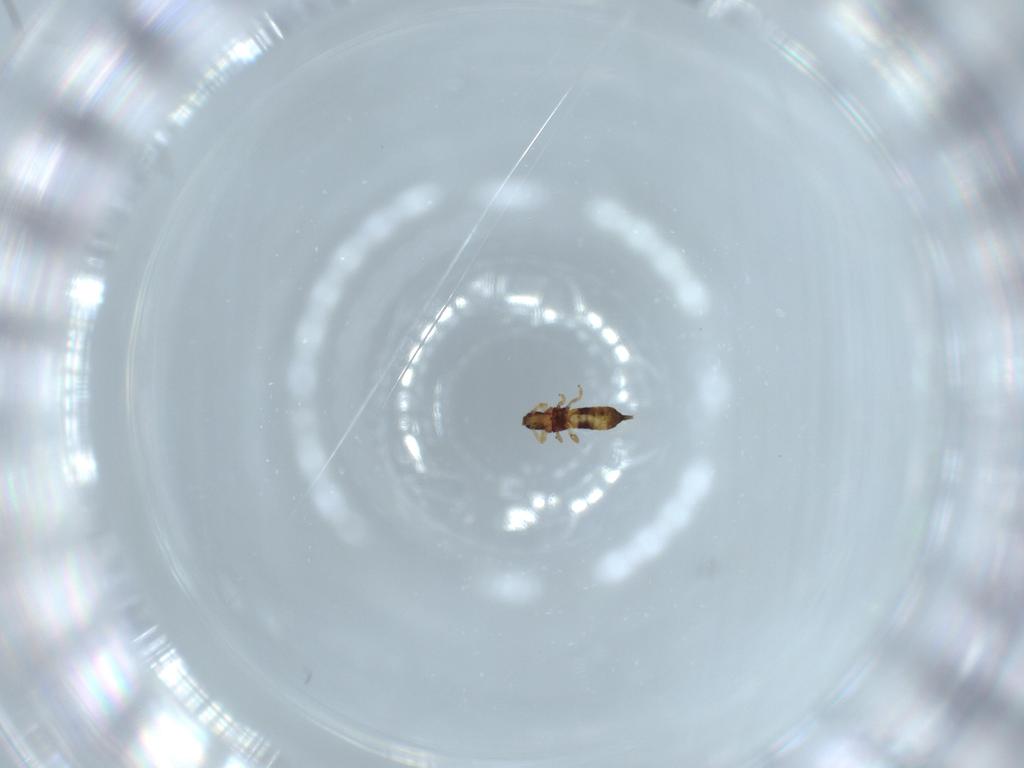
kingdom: Animalia
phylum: Arthropoda
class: Insecta
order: Thysanoptera
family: Phlaeothripidae
